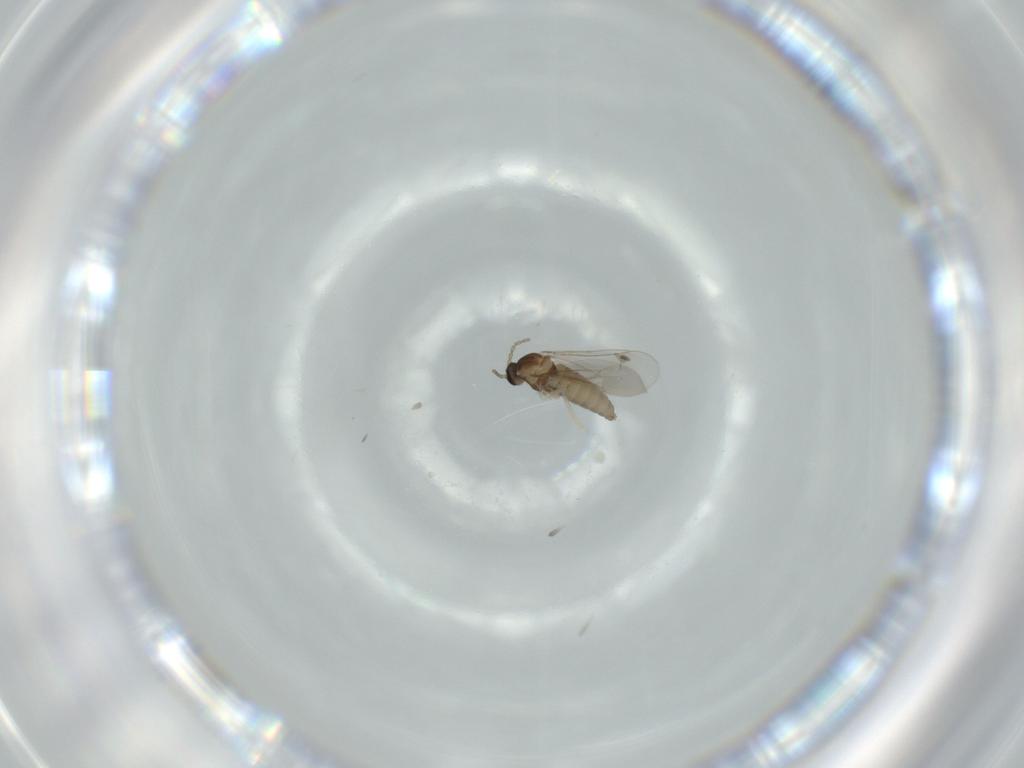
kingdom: Animalia
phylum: Arthropoda
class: Insecta
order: Diptera
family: Cecidomyiidae
